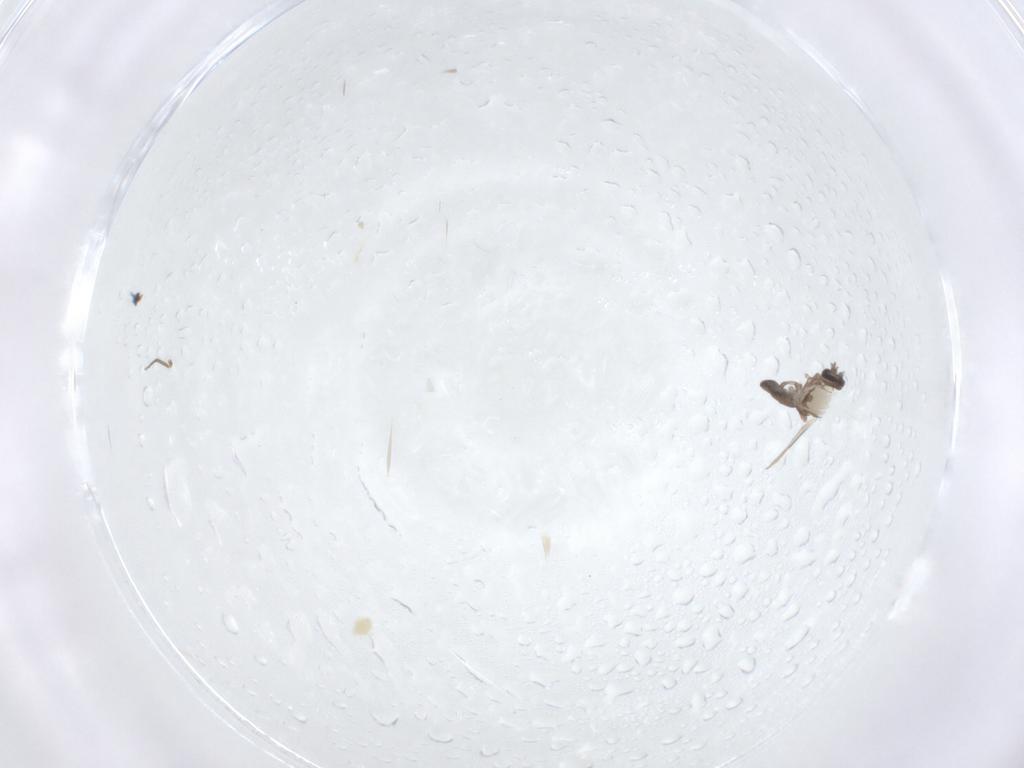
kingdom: Animalia
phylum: Arthropoda
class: Insecta
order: Diptera
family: Ceratopogonidae
